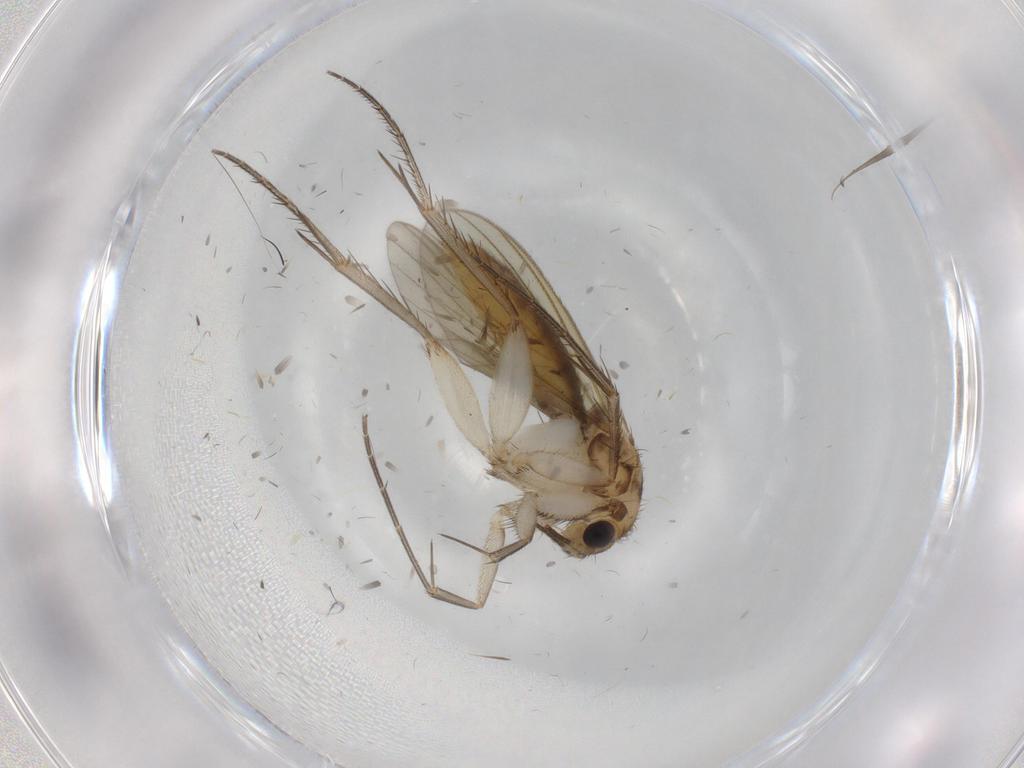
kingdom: Animalia
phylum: Arthropoda
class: Insecta
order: Diptera
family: Mycetophilidae
